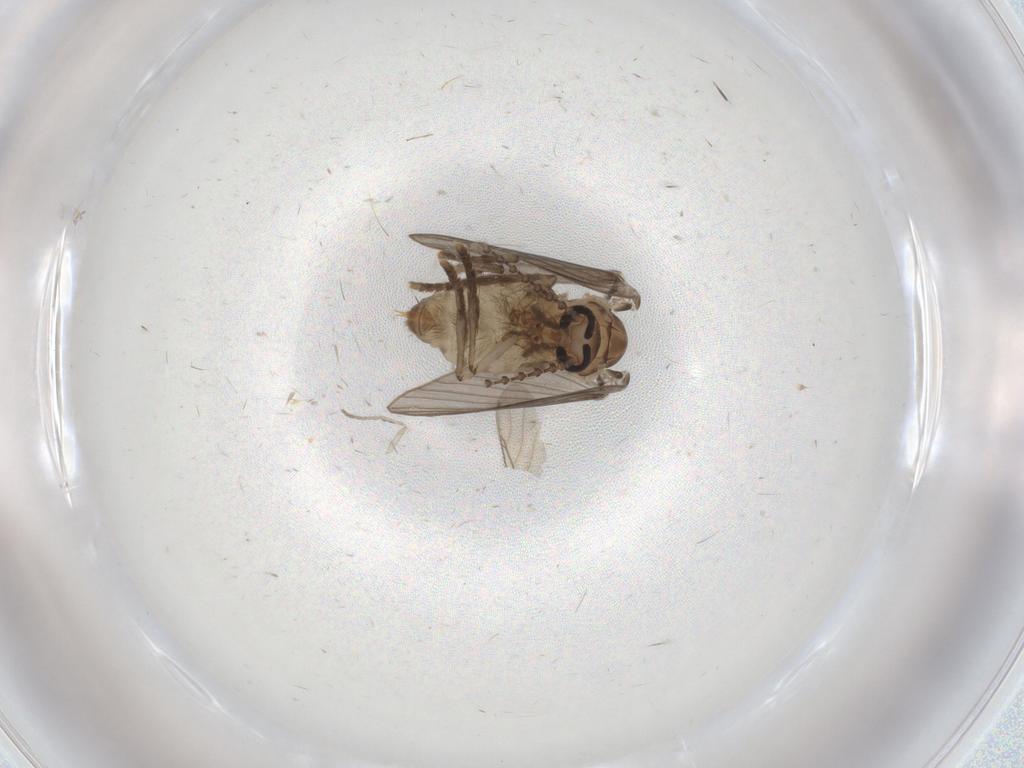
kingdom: Animalia
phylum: Arthropoda
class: Insecta
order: Diptera
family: Psychodidae
